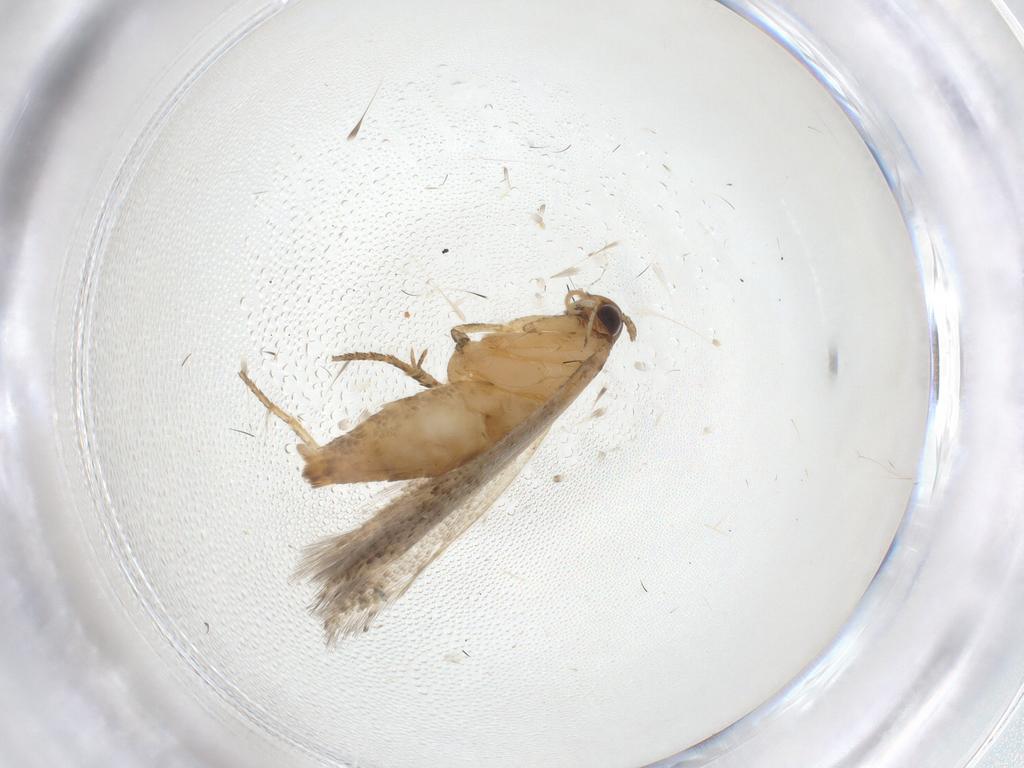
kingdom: Animalia
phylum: Arthropoda
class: Insecta
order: Lepidoptera
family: Gelechiidae
